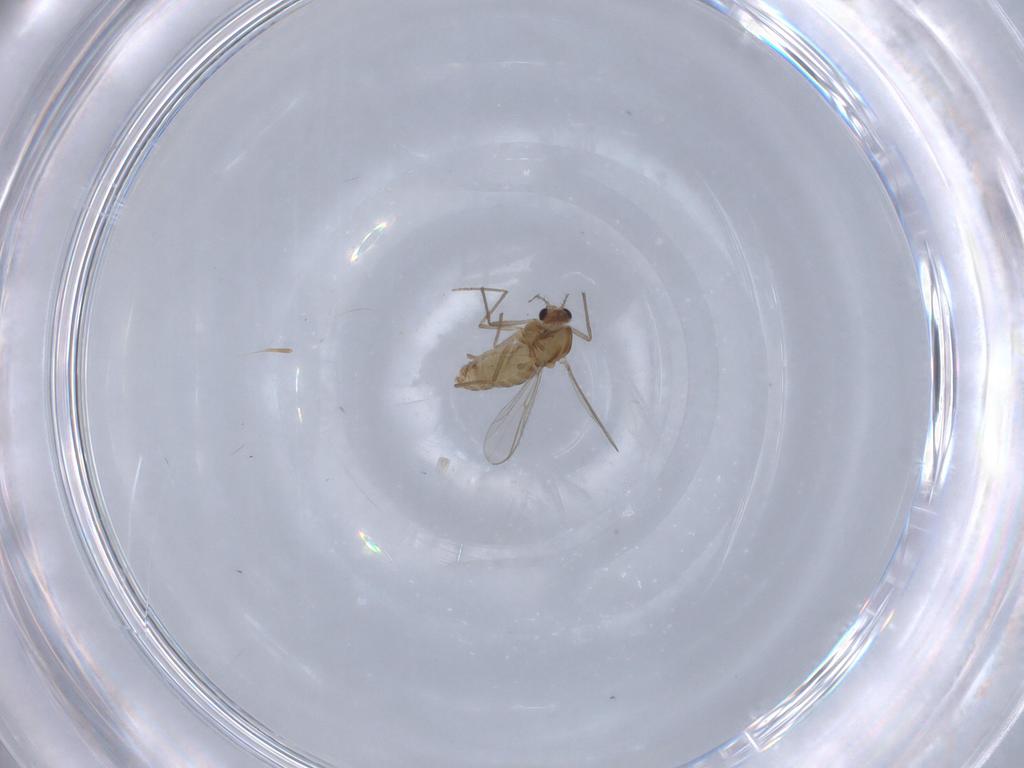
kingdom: Animalia
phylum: Arthropoda
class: Insecta
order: Diptera
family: Chironomidae
